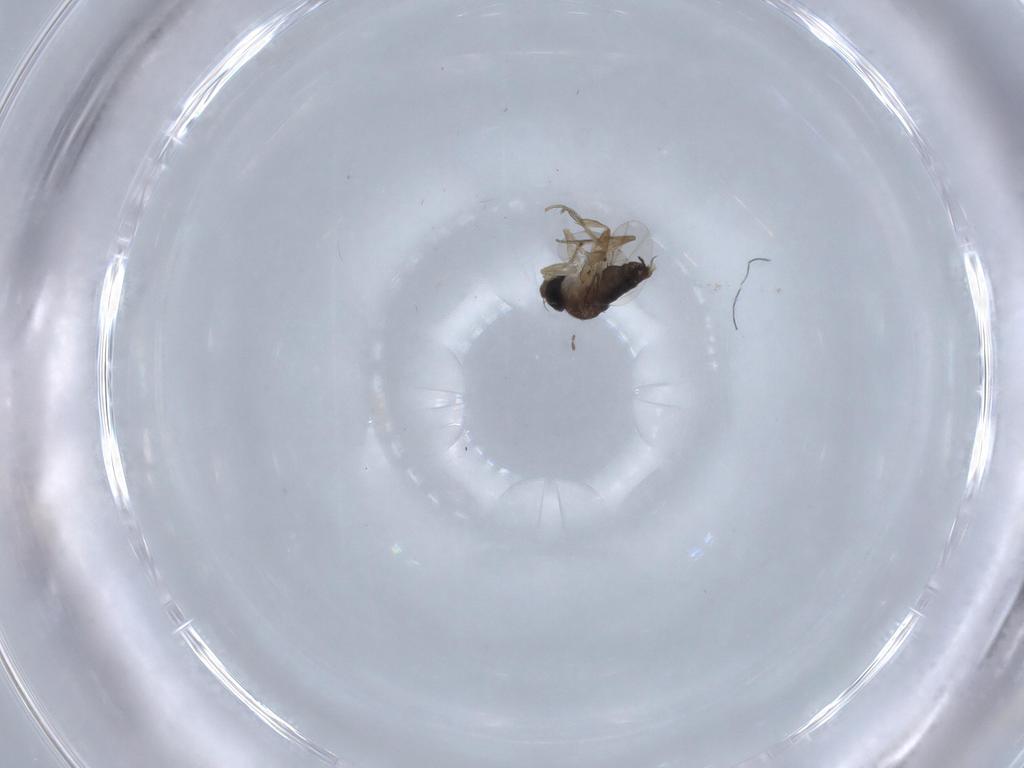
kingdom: Animalia
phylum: Arthropoda
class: Insecta
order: Diptera
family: Phoridae
